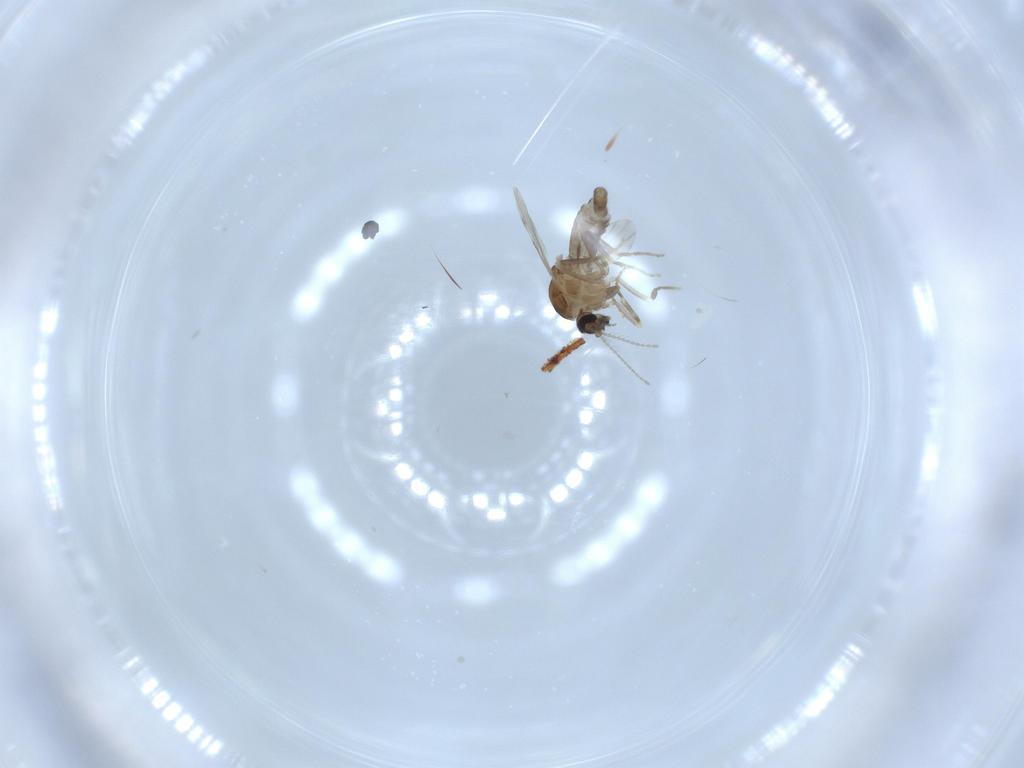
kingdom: Animalia
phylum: Arthropoda
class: Insecta
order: Diptera
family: Ceratopogonidae
